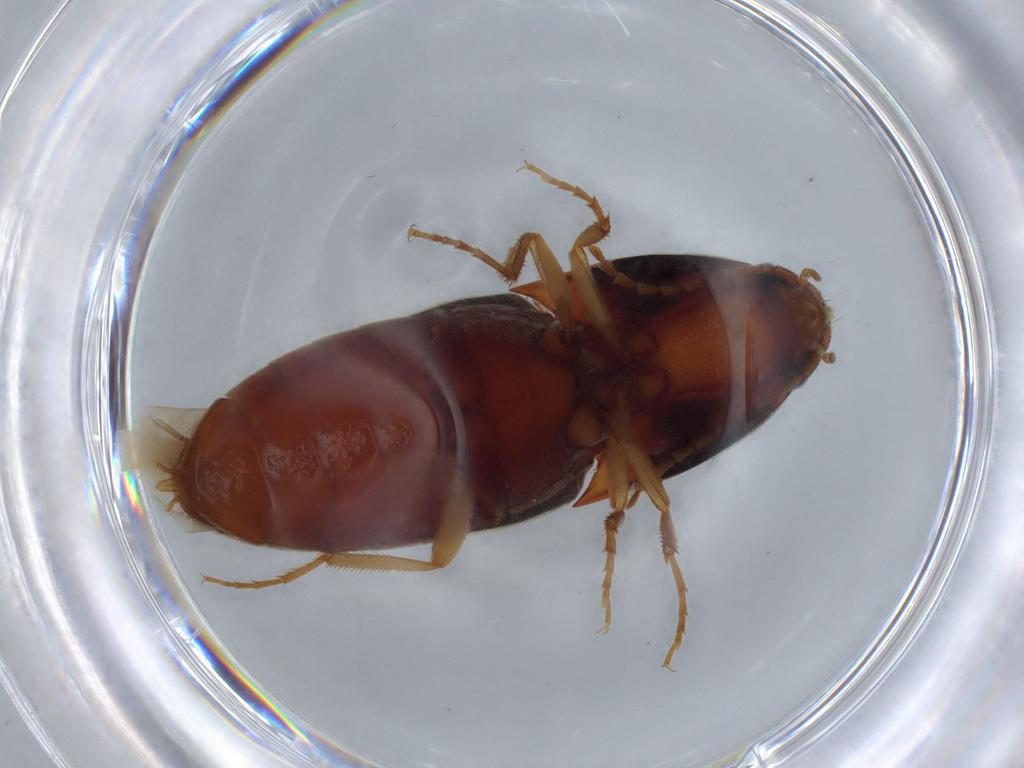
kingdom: Animalia
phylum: Arthropoda
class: Insecta
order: Coleoptera
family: Elateridae
